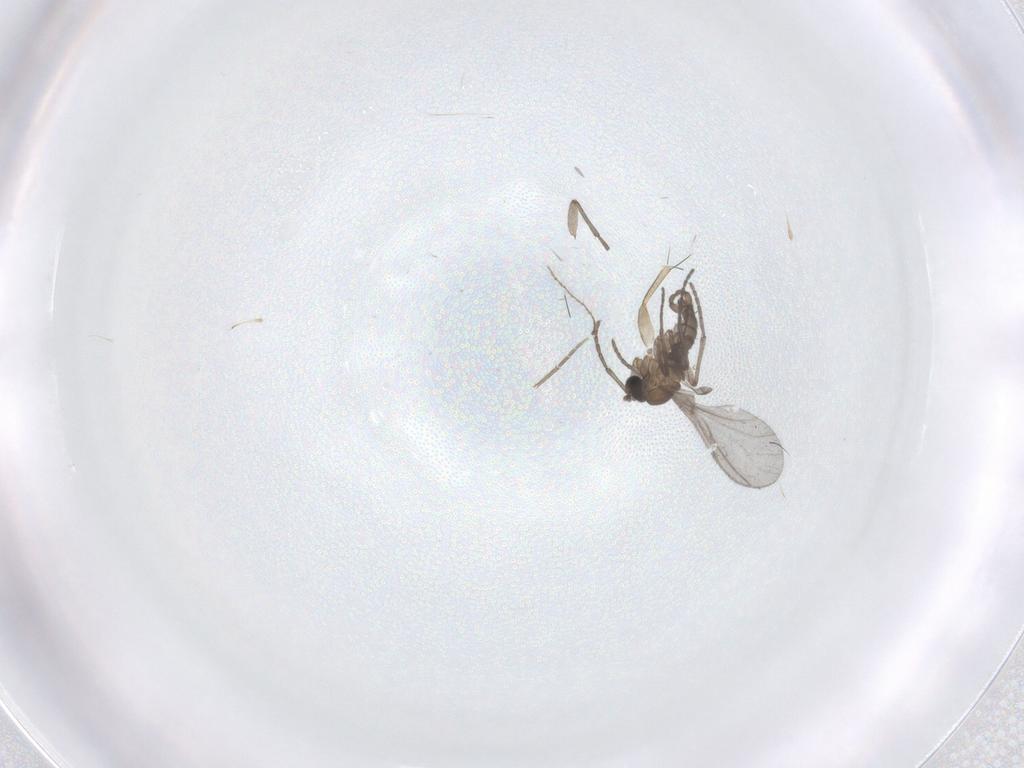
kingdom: Animalia
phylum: Arthropoda
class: Insecta
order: Diptera
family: Sciaridae
